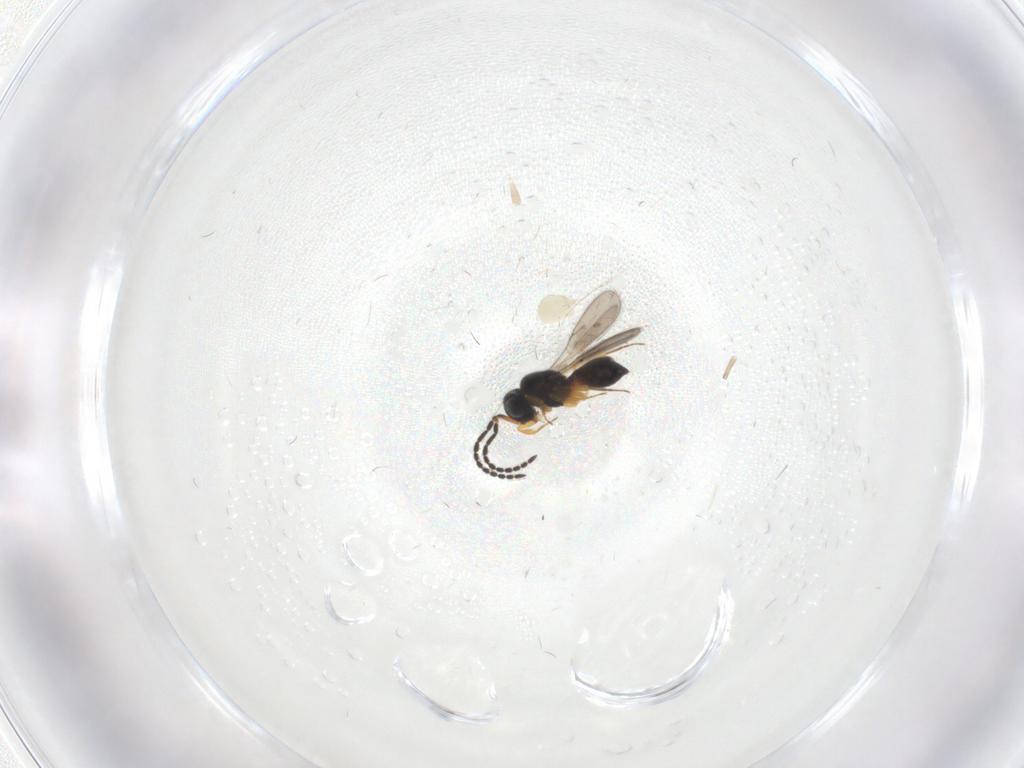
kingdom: Animalia
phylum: Arthropoda
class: Insecta
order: Hymenoptera
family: Scelionidae
